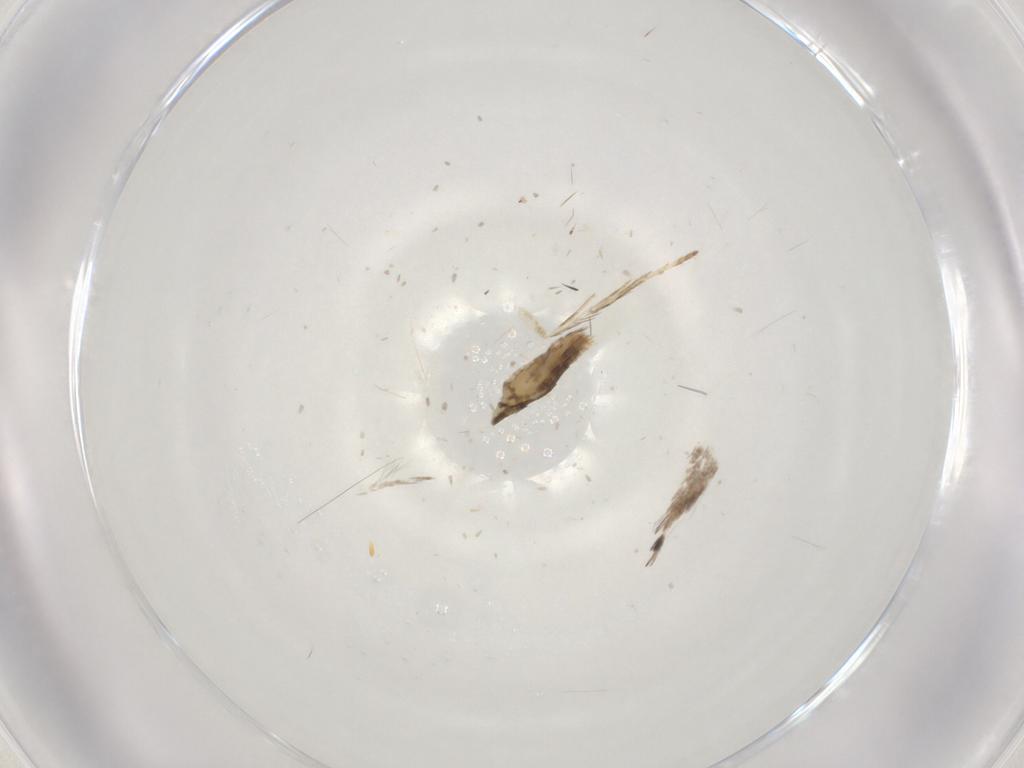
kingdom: Animalia
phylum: Arthropoda
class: Insecta
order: Lepidoptera
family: Gracillariidae
